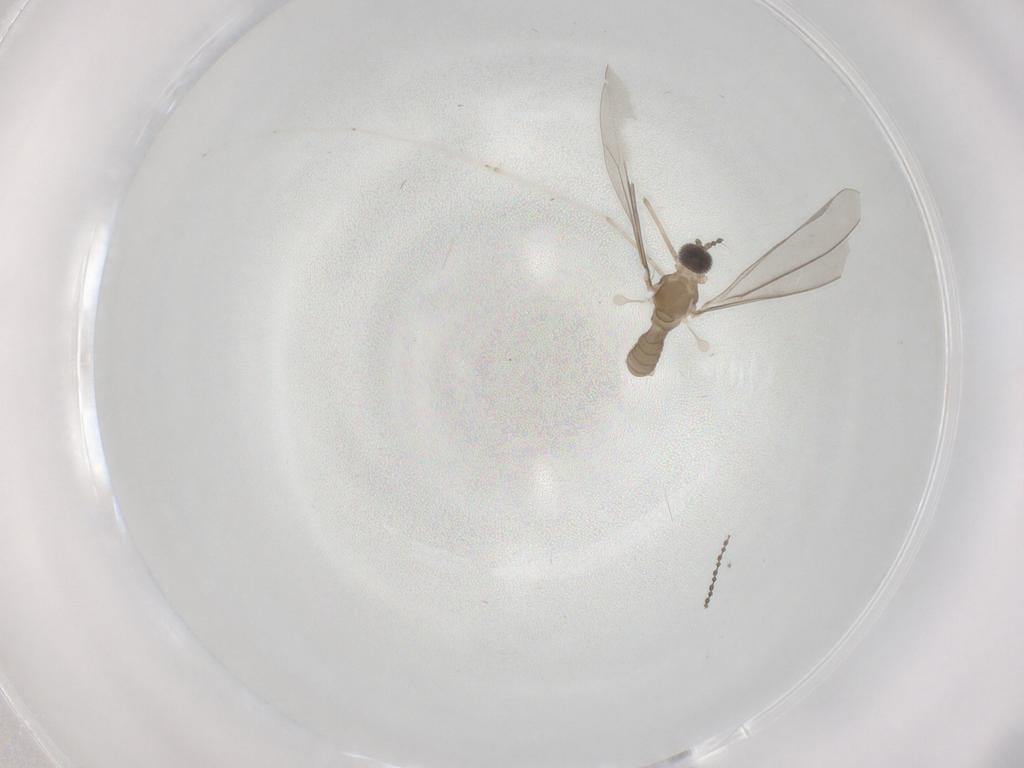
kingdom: Animalia
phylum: Arthropoda
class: Insecta
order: Diptera
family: Cecidomyiidae
